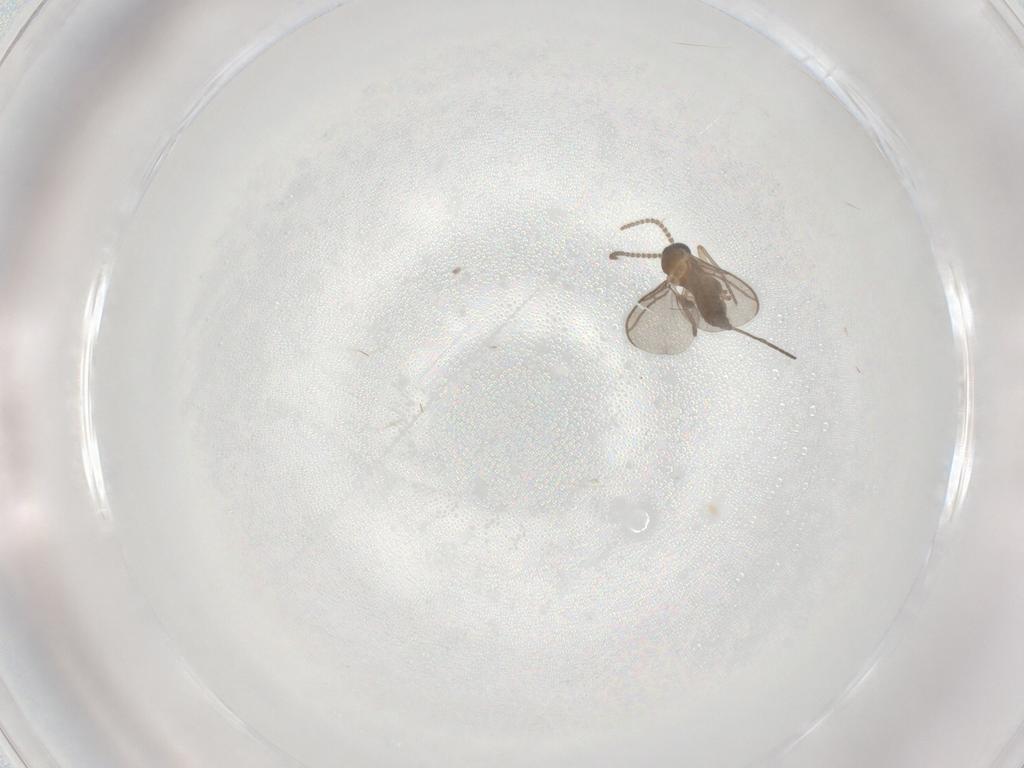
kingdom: Animalia
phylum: Arthropoda
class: Insecta
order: Diptera
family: Sciaridae
